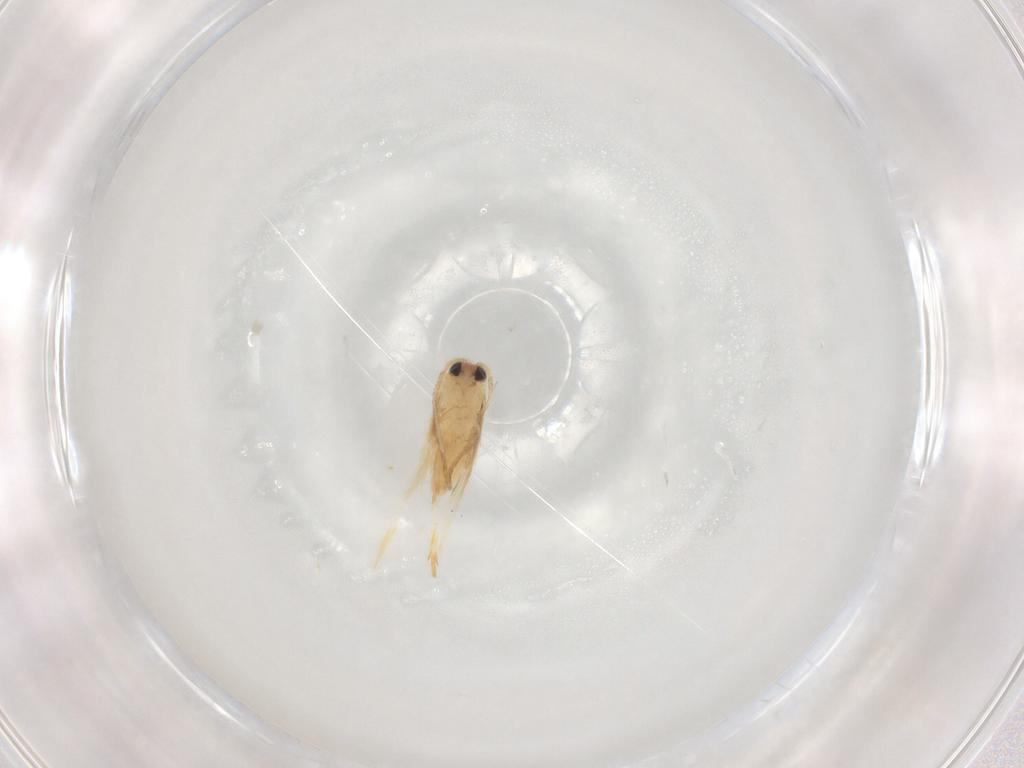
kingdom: Animalia
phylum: Arthropoda
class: Insecta
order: Lepidoptera
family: Nepticulidae
